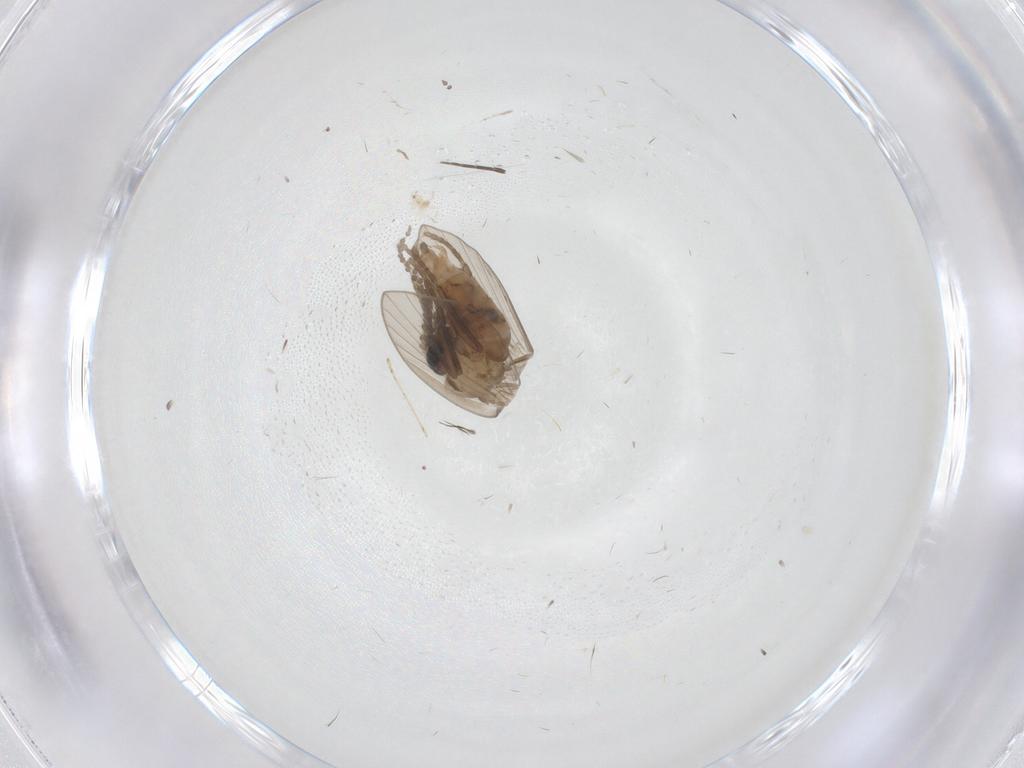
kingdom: Animalia
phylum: Arthropoda
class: Insecta
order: Diptera
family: Psychodidae
